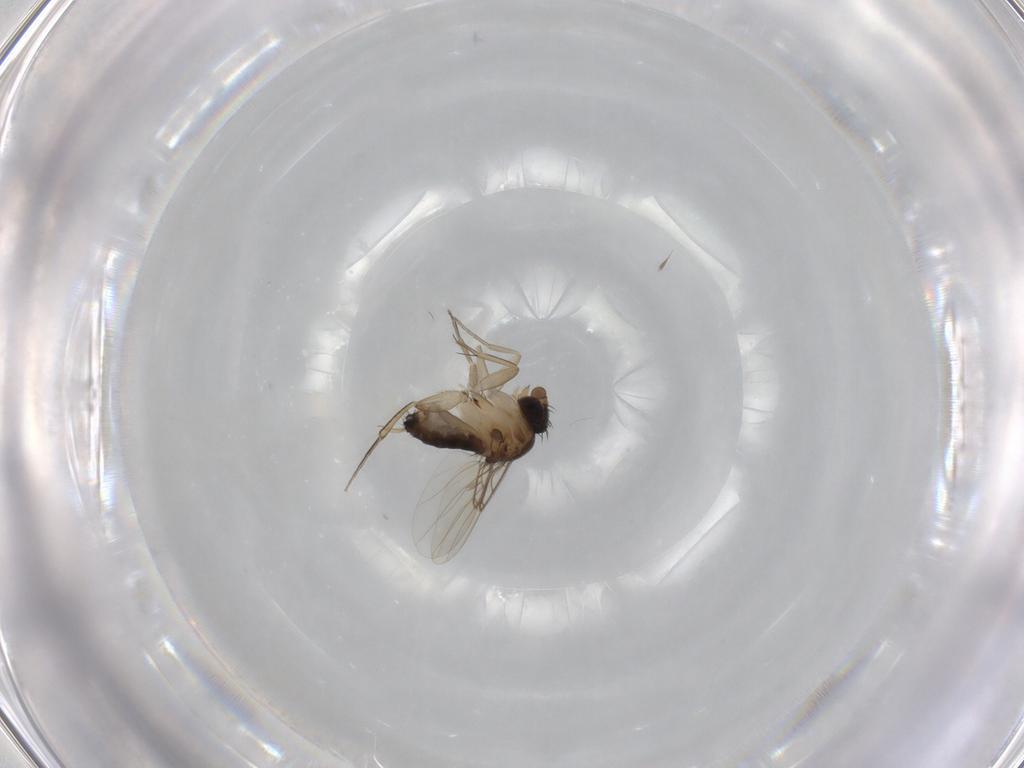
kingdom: Animalia
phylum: Arthropoda
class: Insecta
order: Diptera
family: Phoridae
